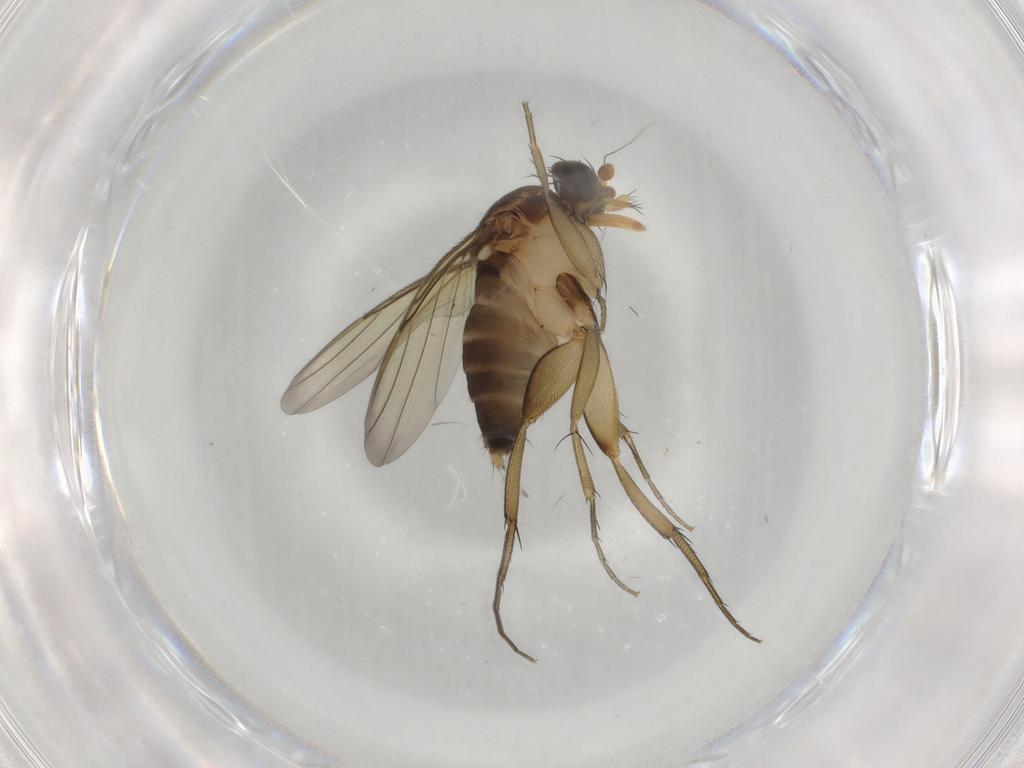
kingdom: Animalia
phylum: Arthropoda
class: Insecta
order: Diptera
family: Phoridae
